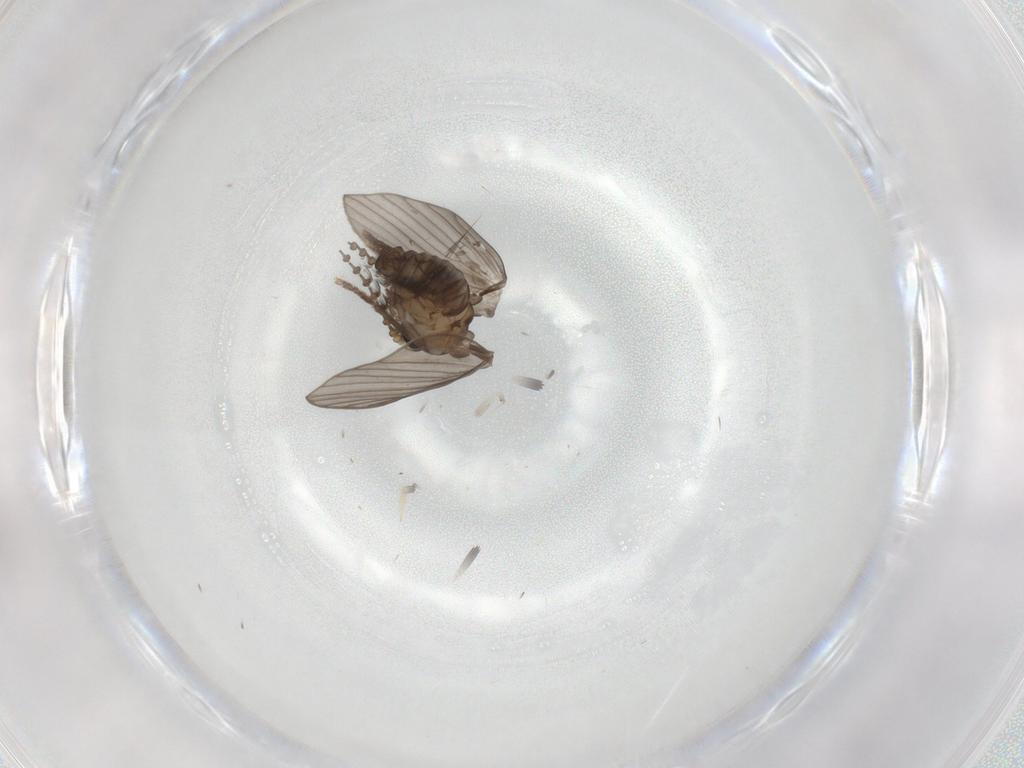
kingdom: Animalia
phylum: Arthropoda
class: Insecta
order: Diptera
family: Psychodidae
